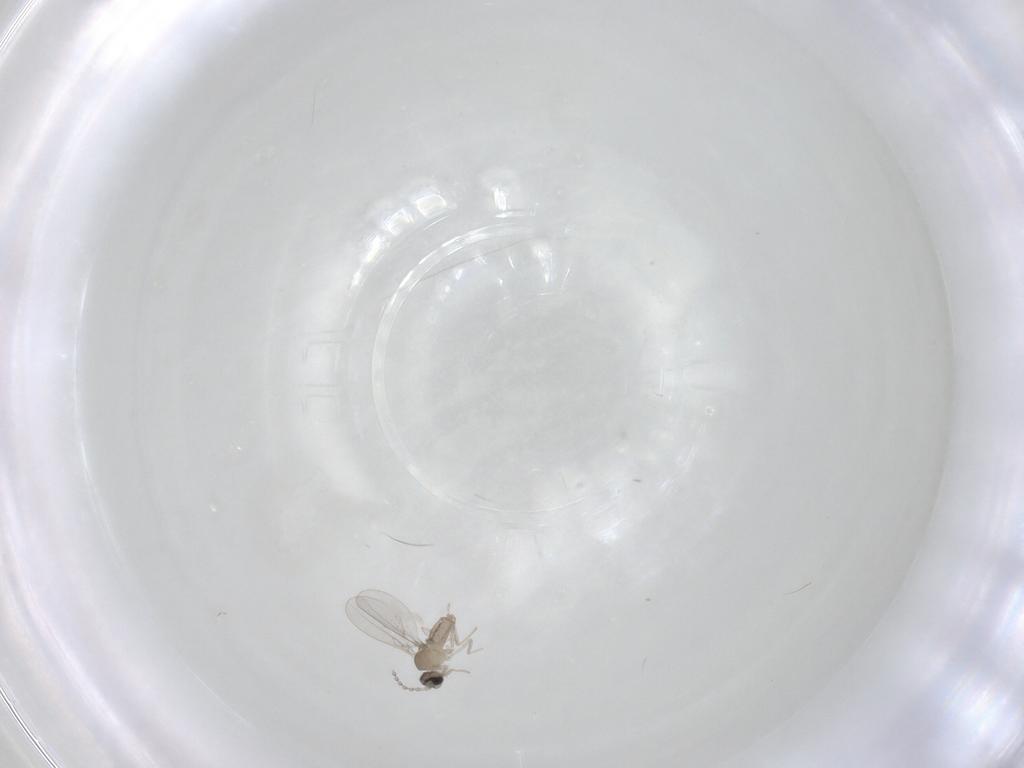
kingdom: Animalia
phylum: Arthropoda
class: Insecta
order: Diptera
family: Cecidomyiidae
